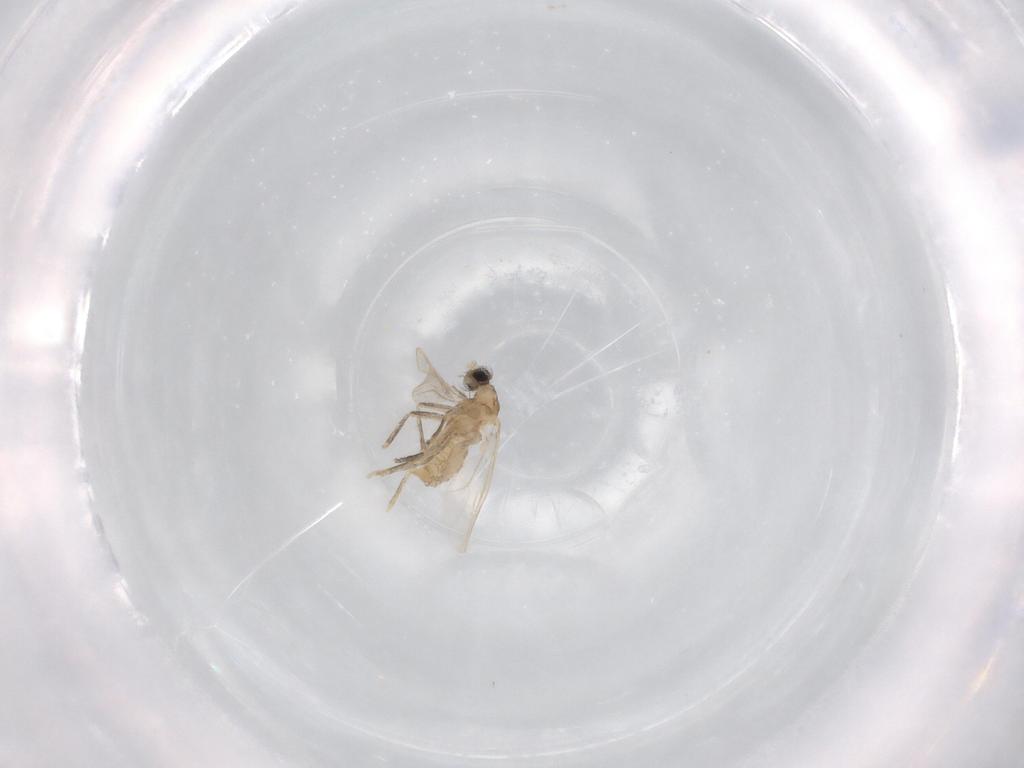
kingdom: Animalia
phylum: Arthropoda
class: Insecta
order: Diptera
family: Cecidomyiidae
